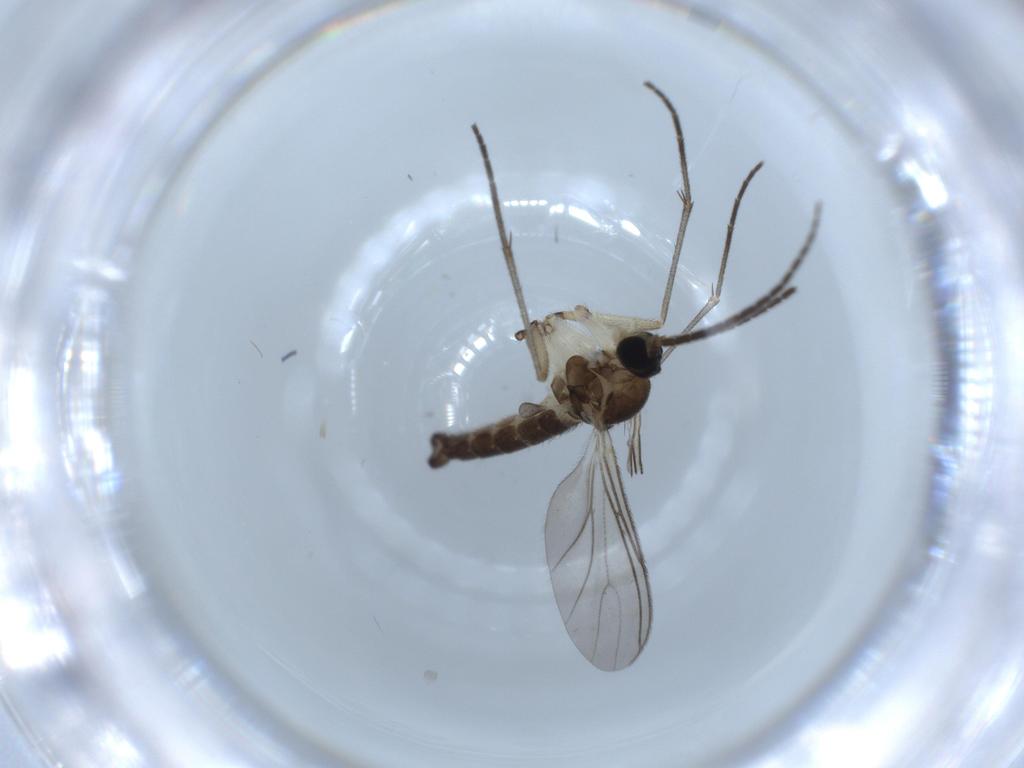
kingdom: Animalia
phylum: Arthropoda
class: Insecta
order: Diptera
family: Sciaridae
